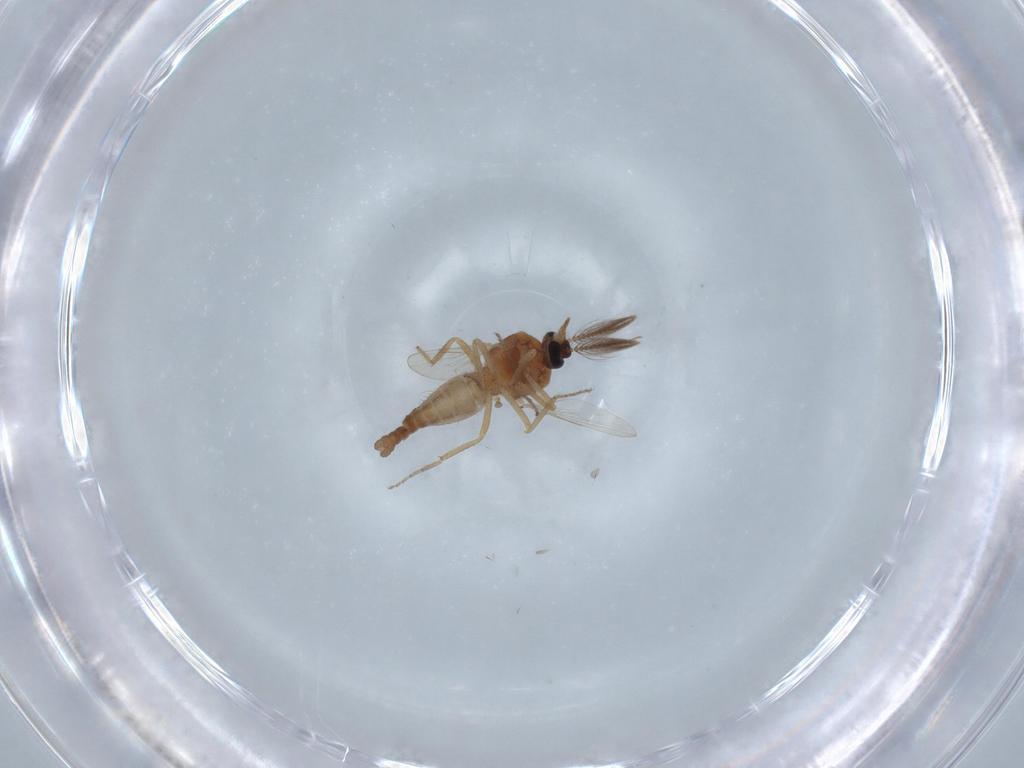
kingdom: Animalia
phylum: Arthropoda
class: Insecta
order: Diptera
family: Ceratopogonidae
